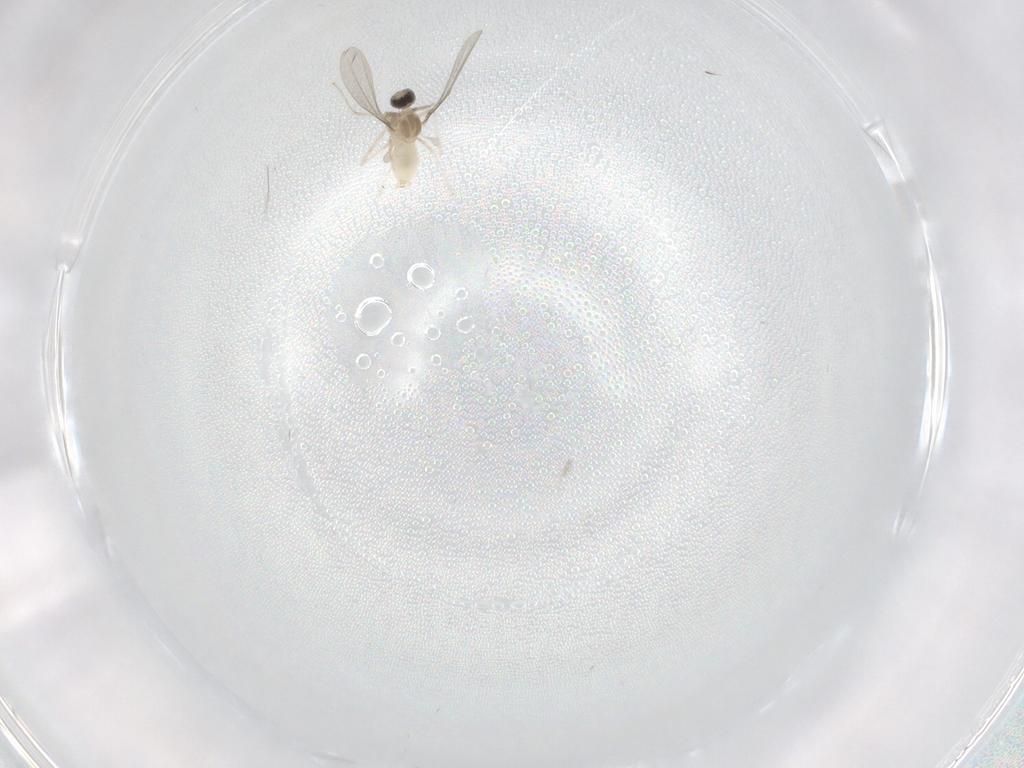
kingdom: Animalia
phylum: Arthropoda
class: Insecta
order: Diptera
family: Cecidomyiidae
